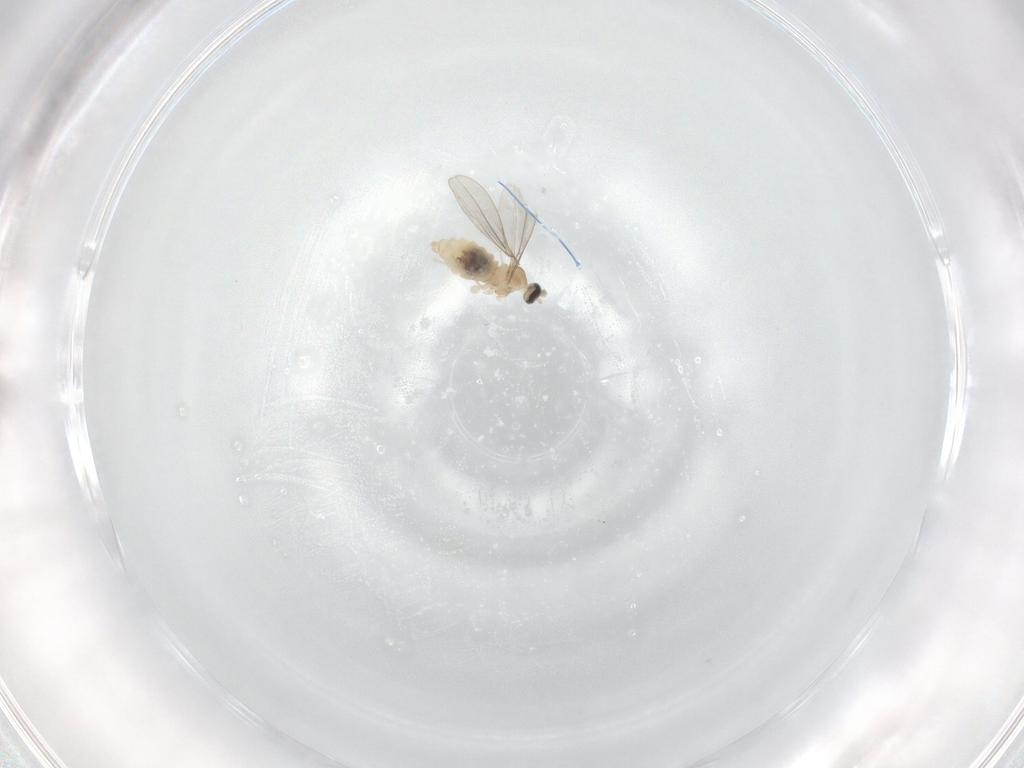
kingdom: Animalia
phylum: Arthropoda
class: Insecta
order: Diptera
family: Cecidomyiidae
